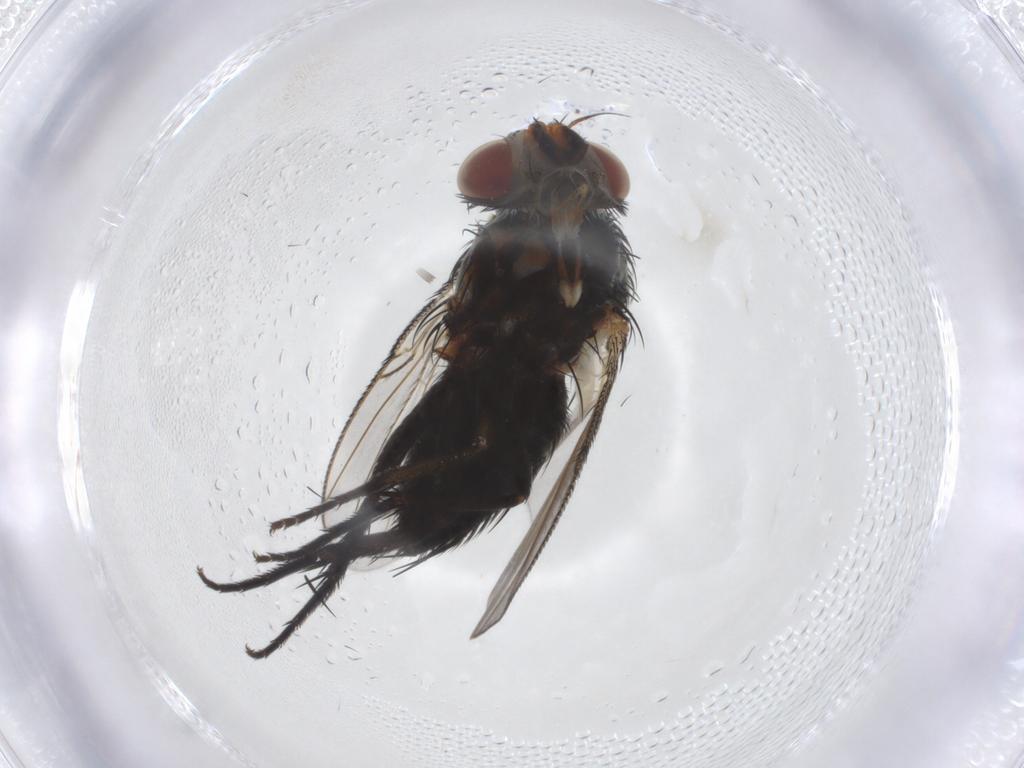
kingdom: Animalia
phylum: Arthropoda
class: Insecta
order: Diptera
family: Tachinidae
